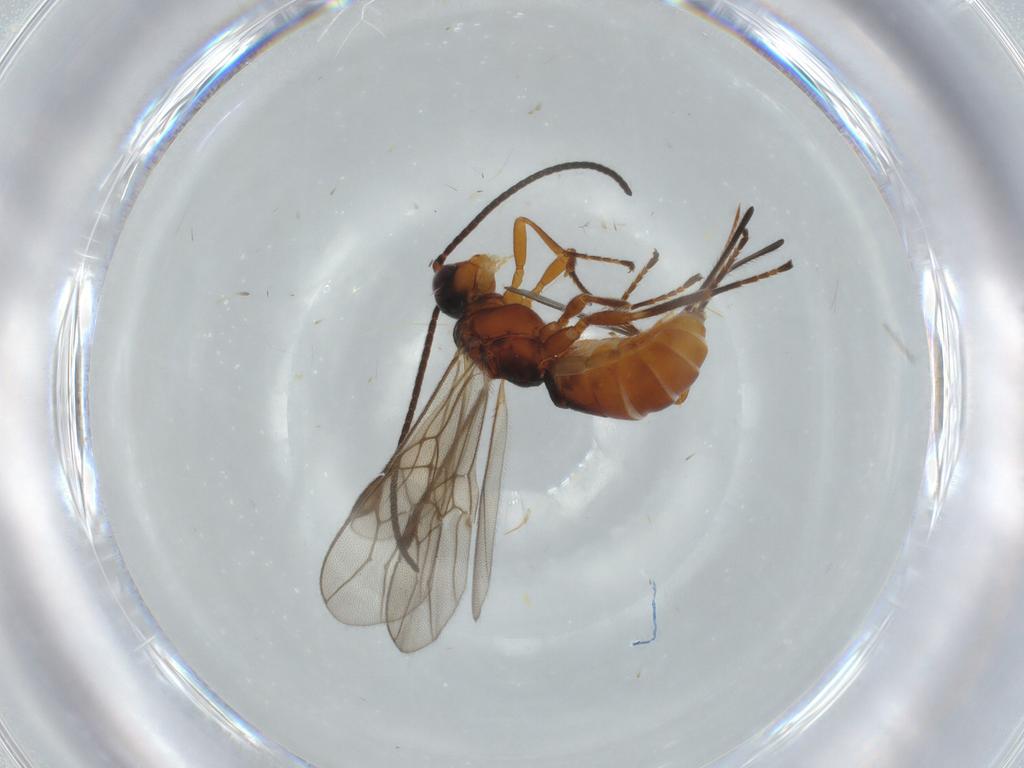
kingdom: Animalia
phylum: Arthropoda
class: Insecta
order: Hymenoptera
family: Braconidae
